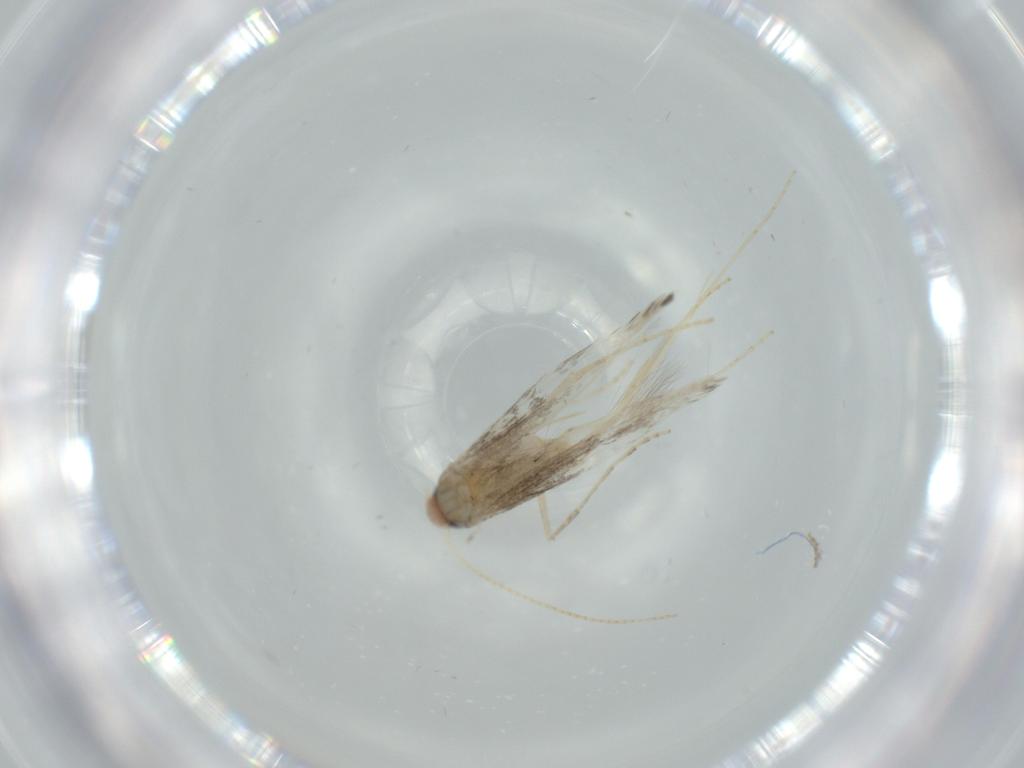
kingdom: Animalia
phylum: Arthropoda
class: Insecta
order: Lepidoptera
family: Gracillariidae
